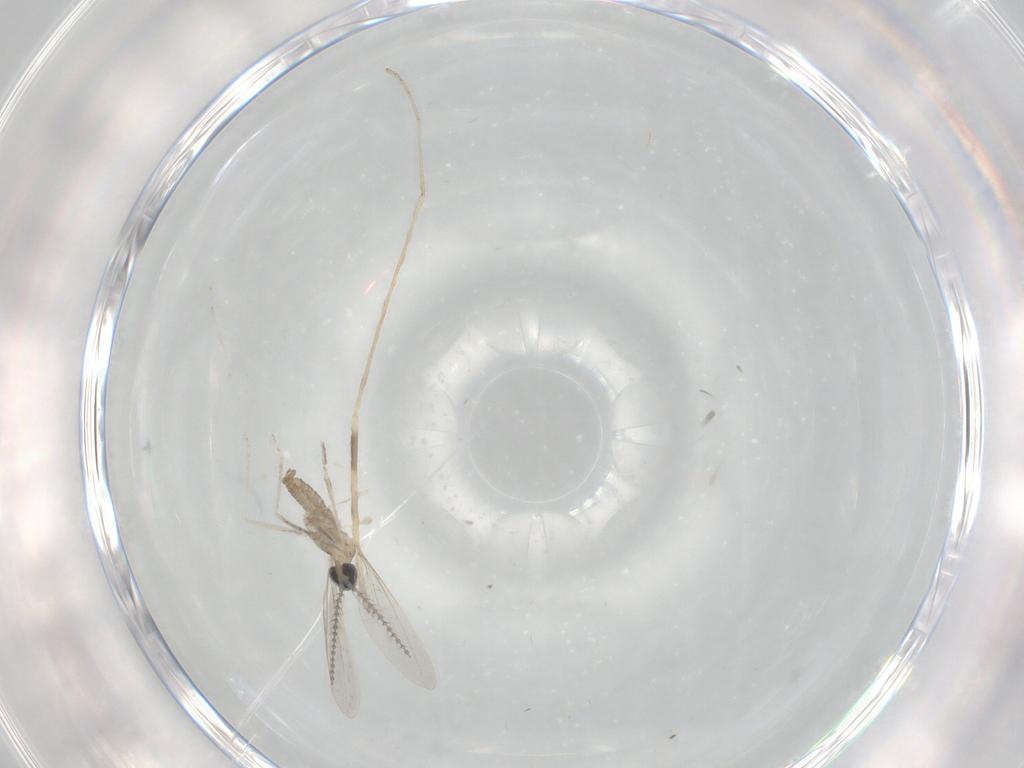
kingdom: Animalia
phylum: Arthropoda
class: Insecta
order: Diptera
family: Cecidomyiidae
